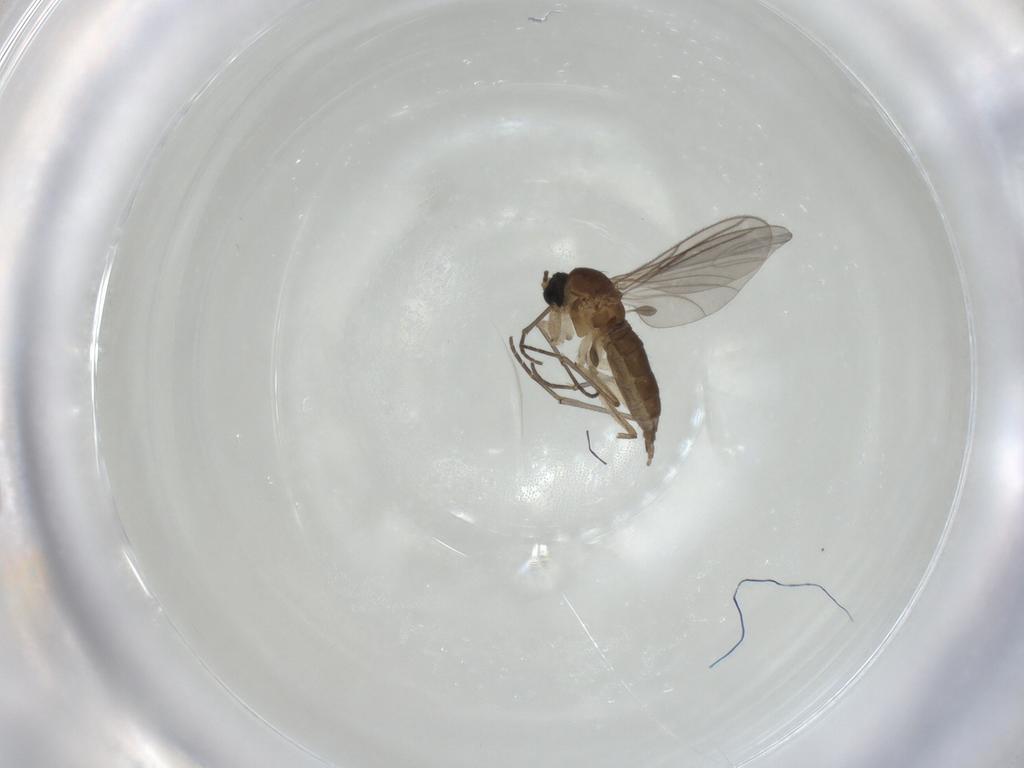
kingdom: Animalia
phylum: Arthropoda
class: Insecta
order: Diptera
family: Sciaridae
